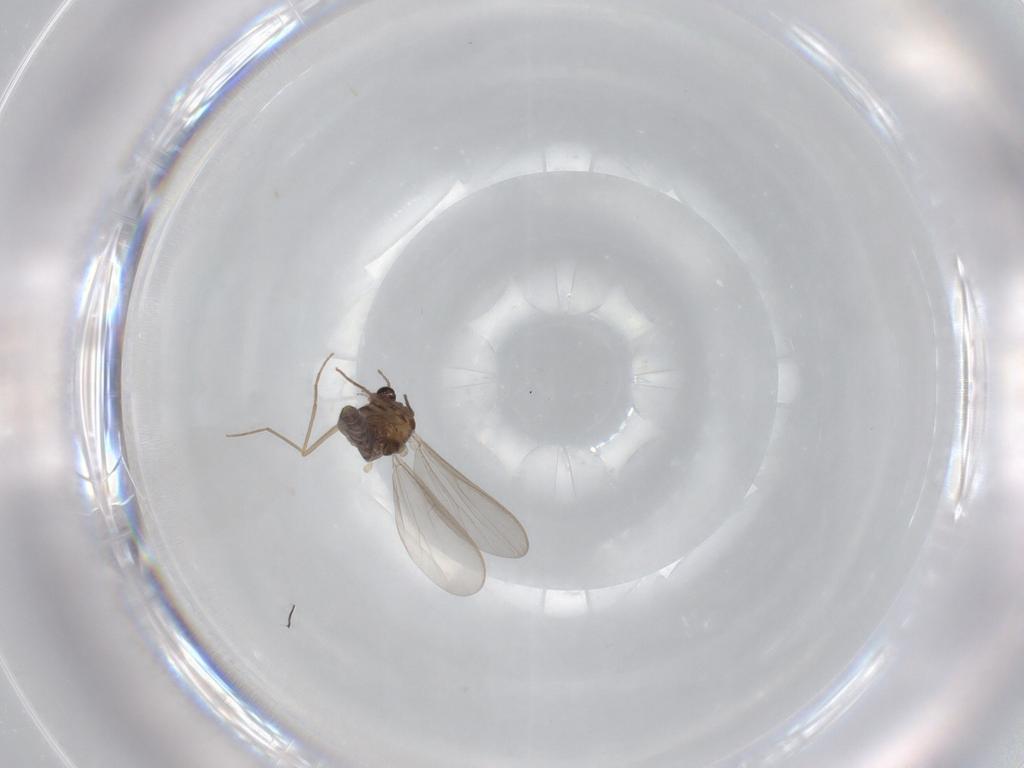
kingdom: Animalia
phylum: Arthropoda
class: Insecta
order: Diptera
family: Chironomidae
